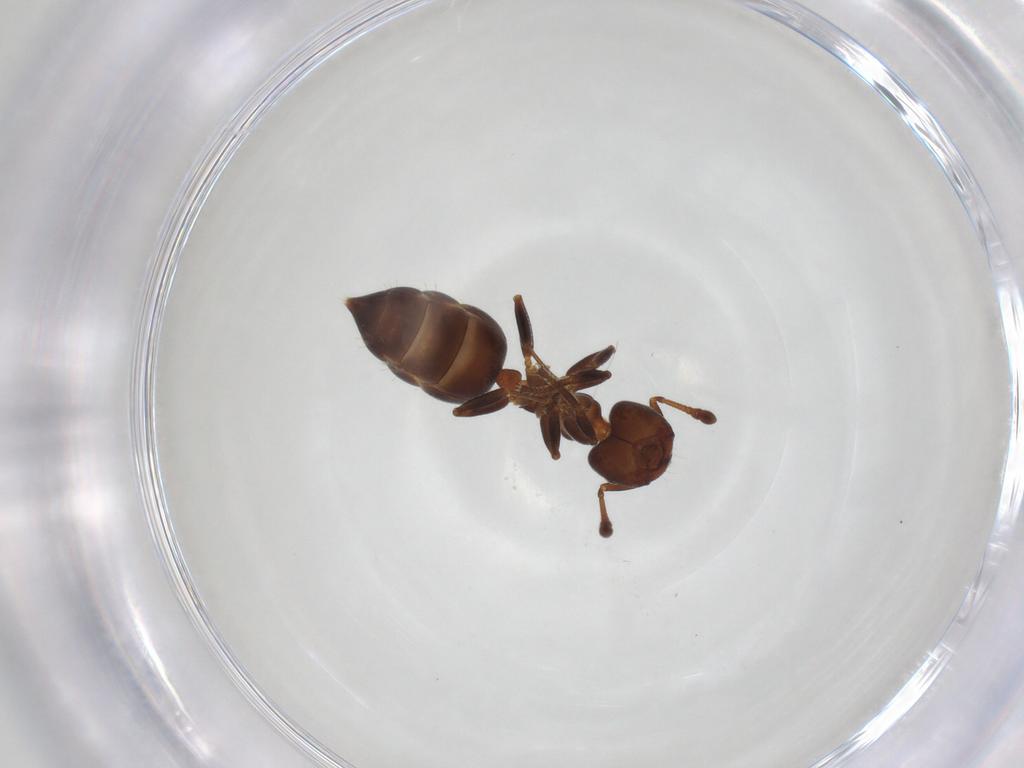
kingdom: Animalia
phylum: Arthropoda
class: Insecta
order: Hymenoptera
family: Formicidae
